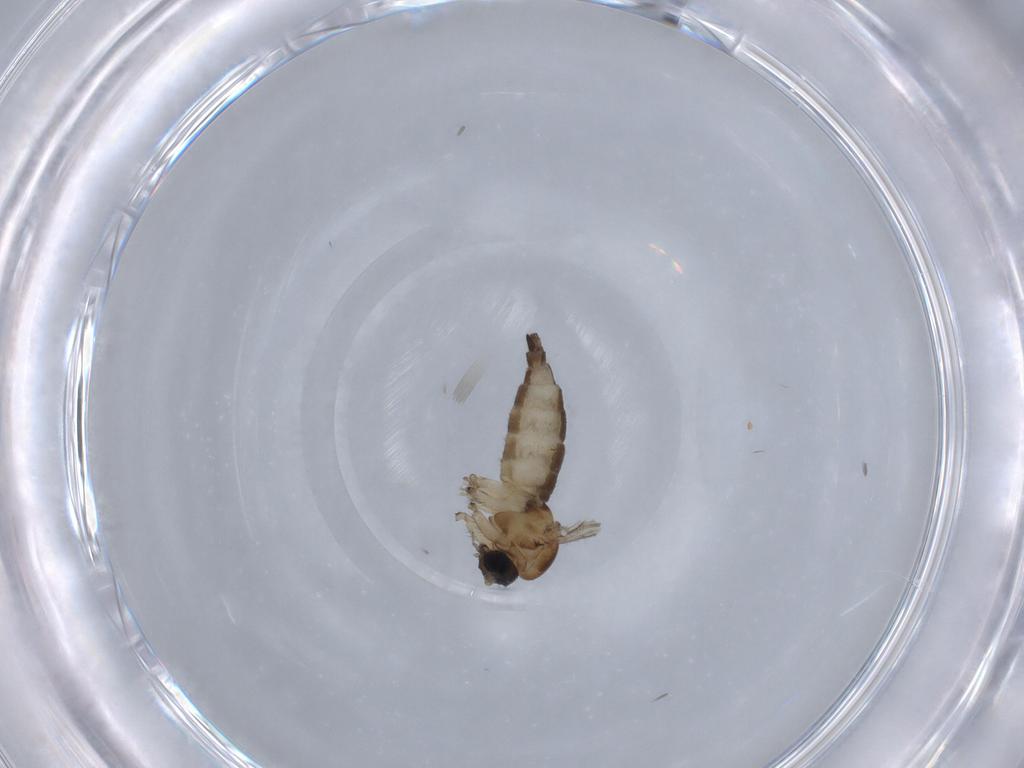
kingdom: Animalia
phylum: Arthropoda
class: Insecta
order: Diptera
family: Sciaridae
